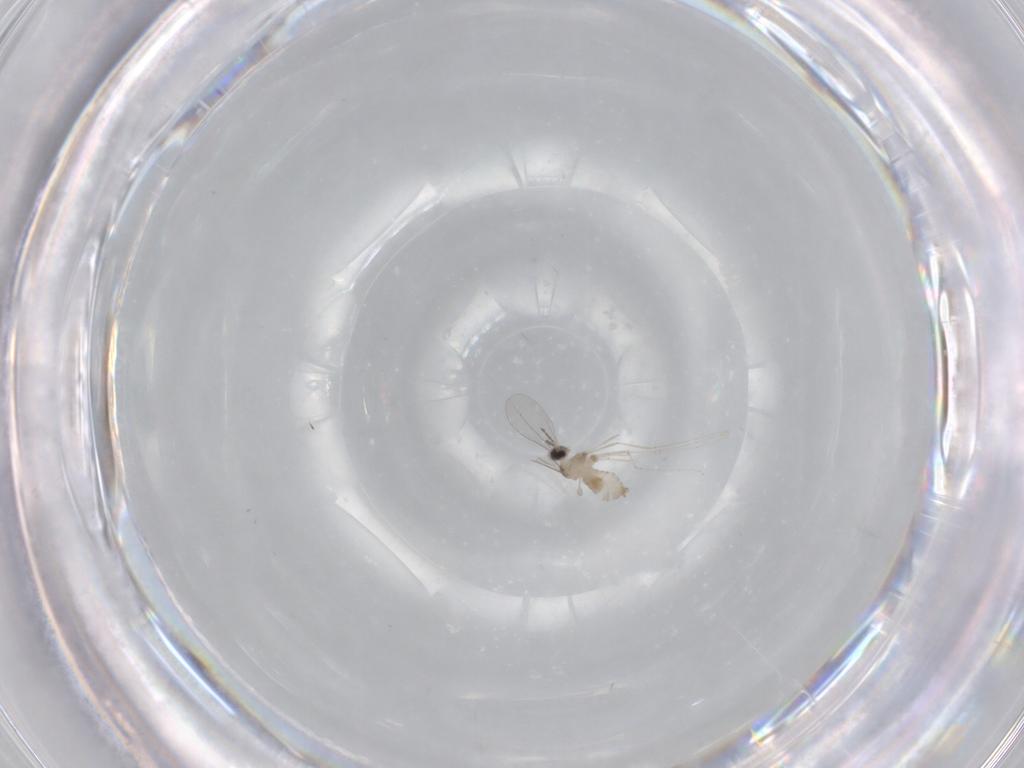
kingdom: Animalia
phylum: Arthropoda
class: Insecta
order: Diptera
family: Cecidomyiidae
